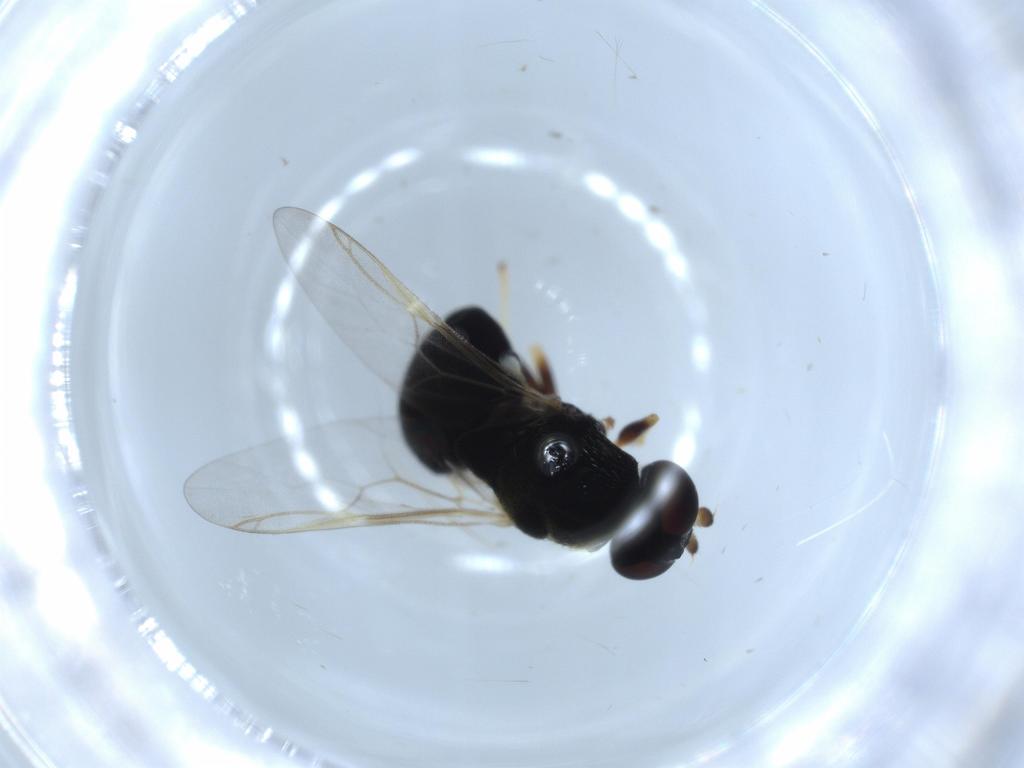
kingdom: Animalia
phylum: Arthropoda
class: Insecta
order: Diptera
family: Stratiomyidae
